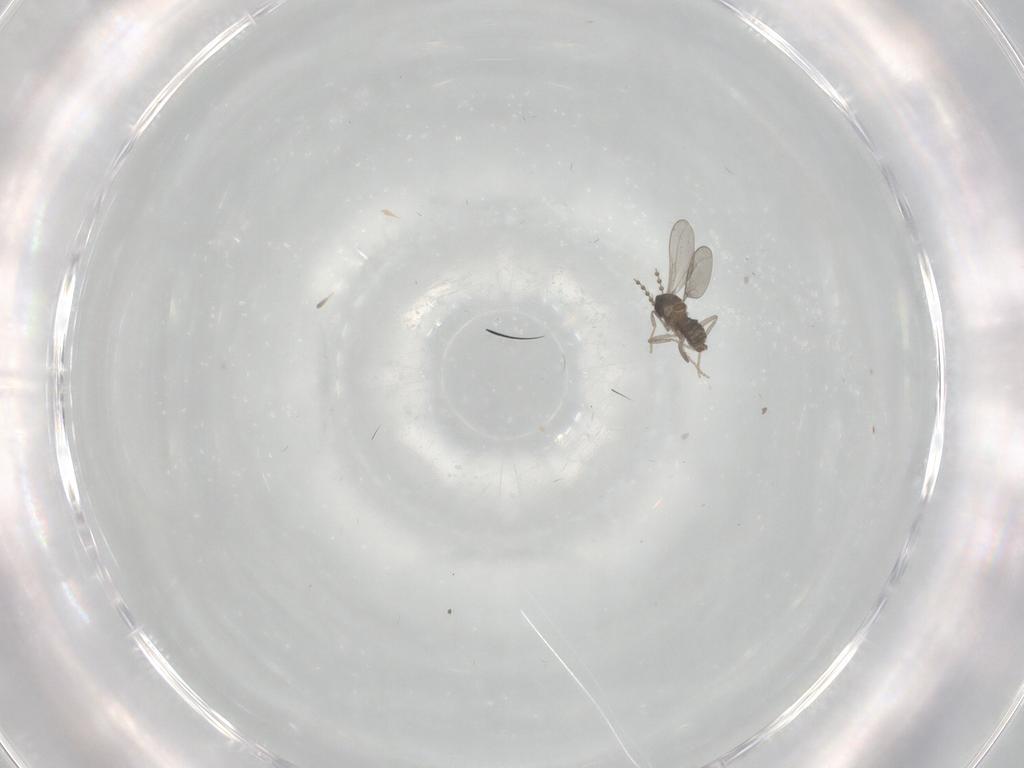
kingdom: Animalia
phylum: Arthropoda
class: Insecta
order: Diptera
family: Cecidomyiidae
